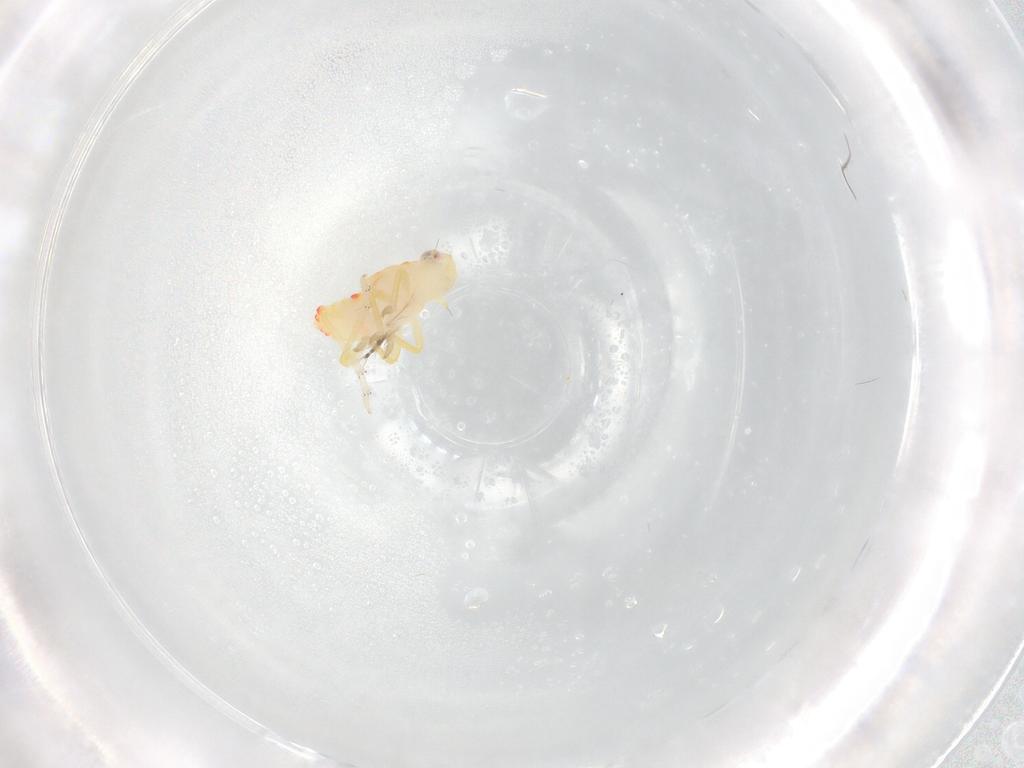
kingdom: Animalia
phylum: Arthropoda
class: Insecta
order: Hemiptera
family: Tropiduchidae
